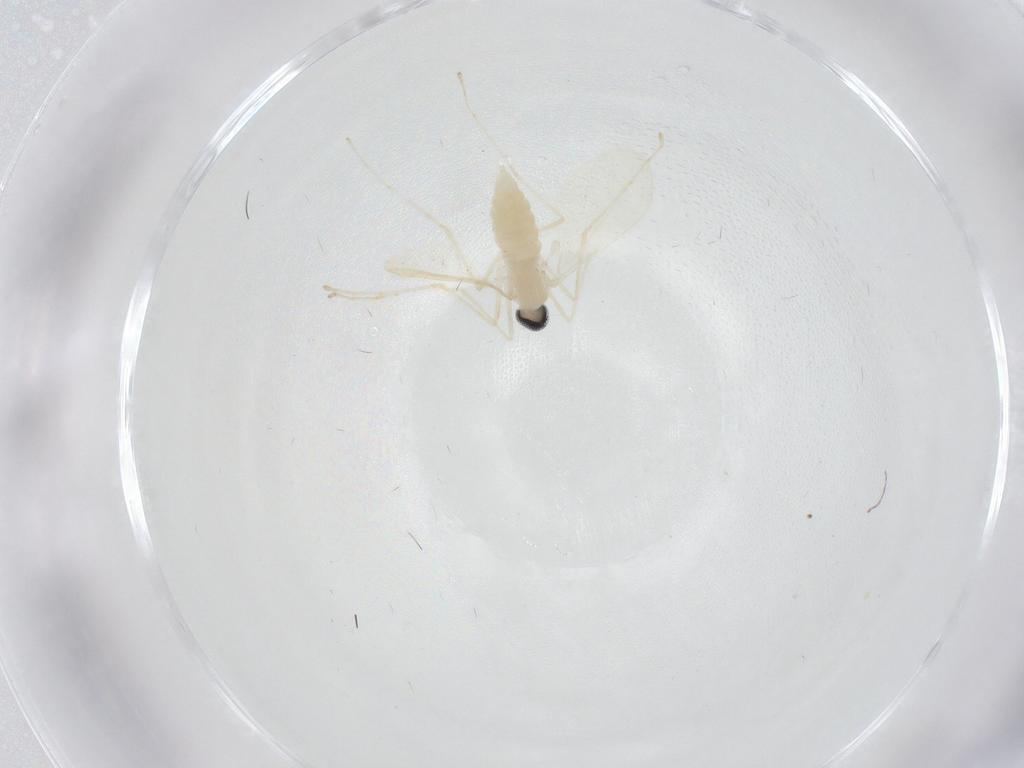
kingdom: Animalia
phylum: Arthropoda
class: Insecta
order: Diptera
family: Cecidomyiidae
